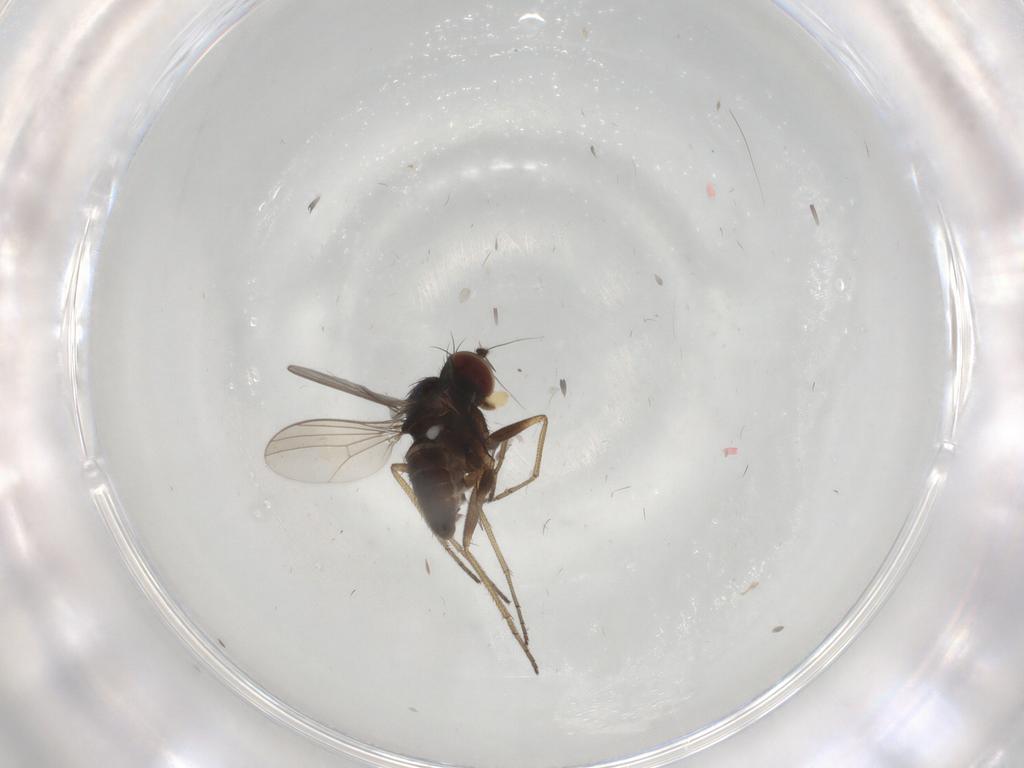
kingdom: Animalia
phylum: Arthropoda
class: Insecta
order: Diptera
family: Dolichopodidae
